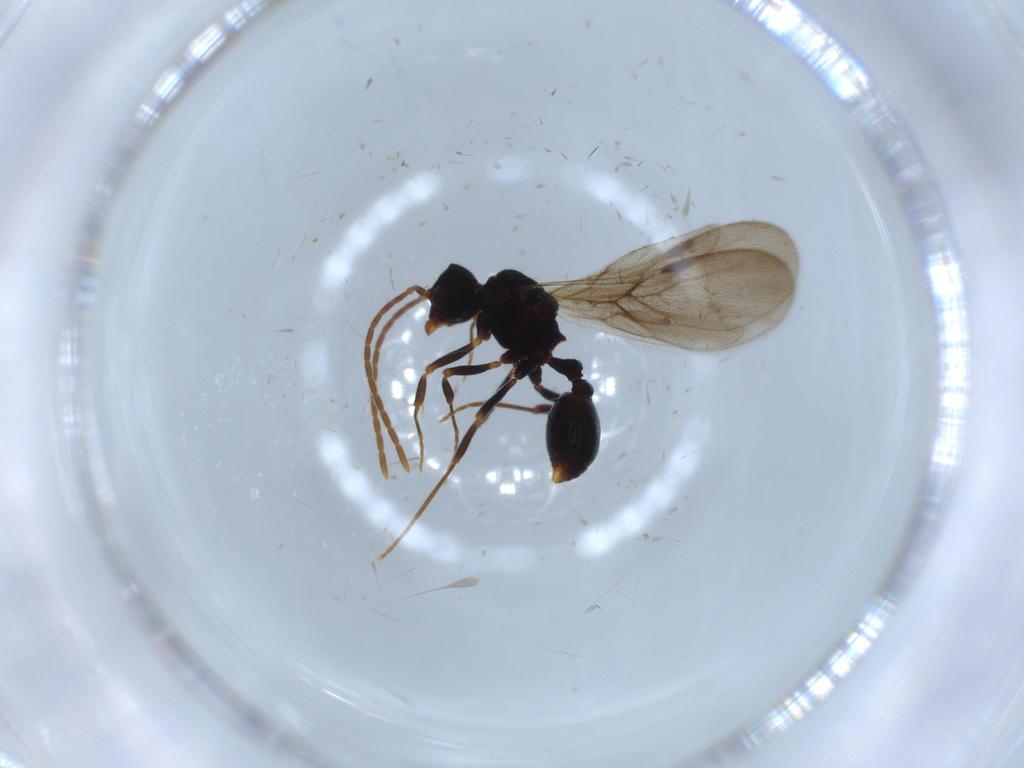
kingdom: Animalia
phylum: Arthropoda
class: Insecta
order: Hymenoptera
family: Formicidae
